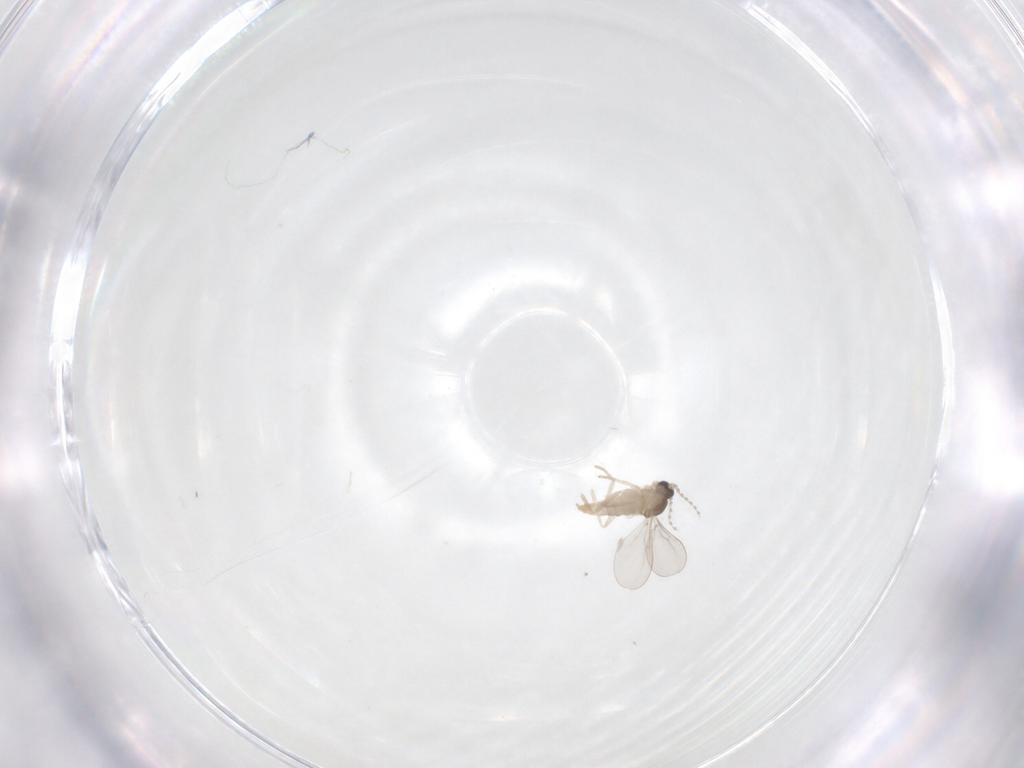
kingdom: Animalia
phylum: Arthropoda
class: Insecta
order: Diptera
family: Cecidomyiidae
